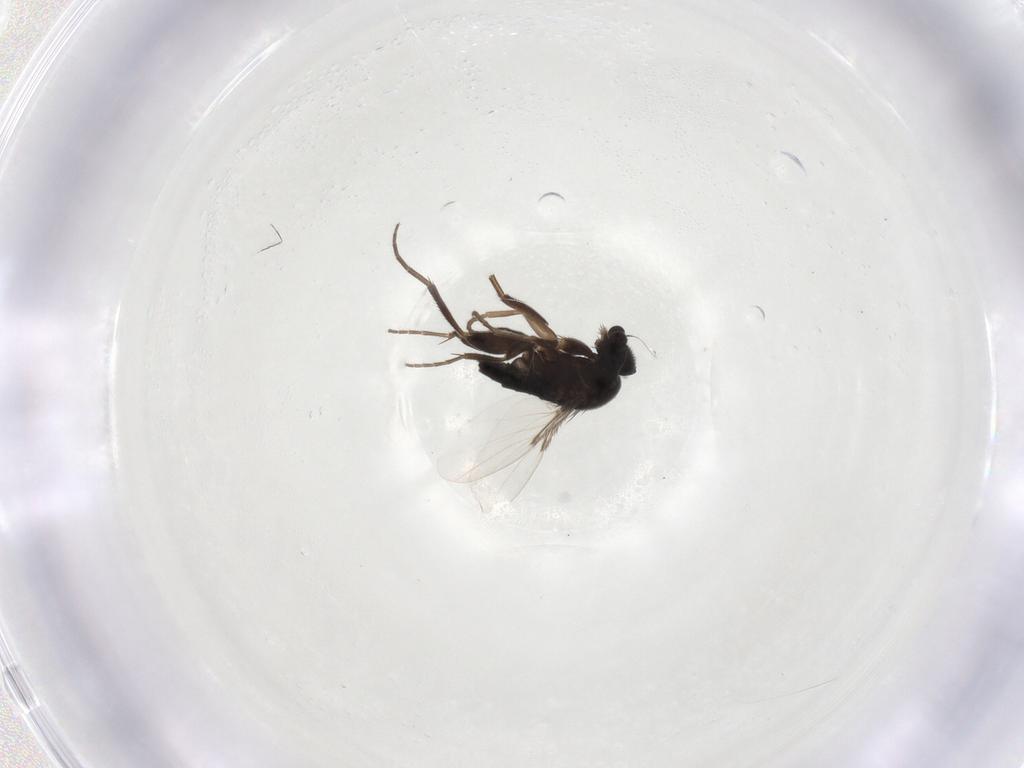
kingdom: Animalia
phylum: Arthropoda
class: Insecta
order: Diptera
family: Phoridae
